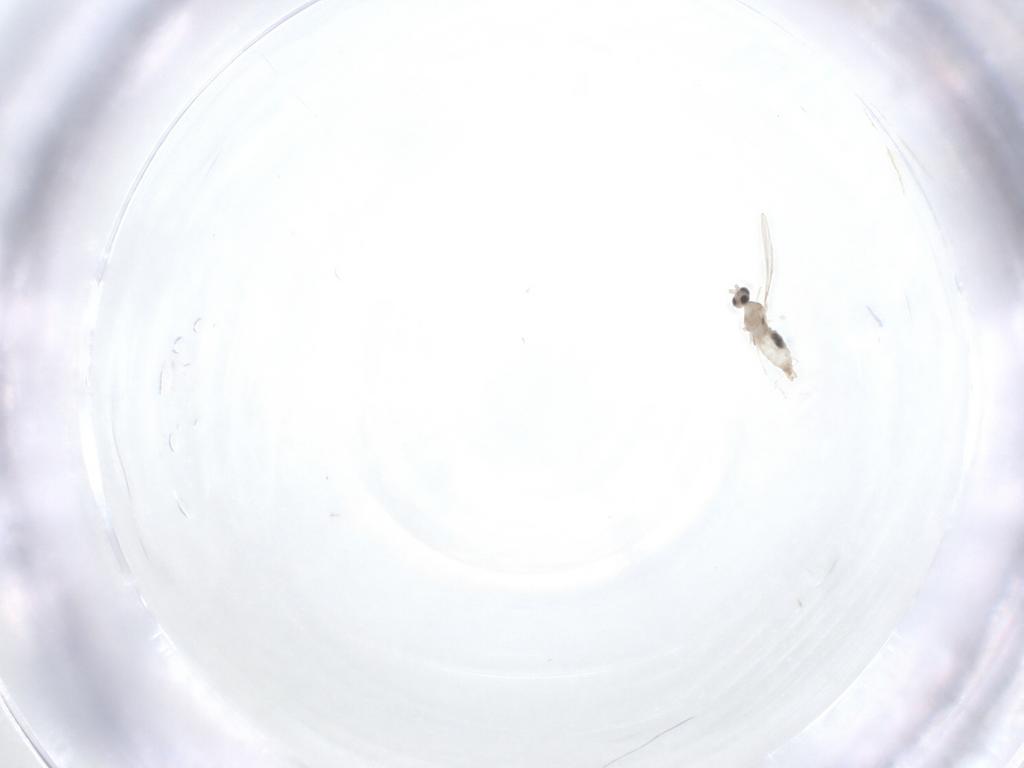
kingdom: Animalia
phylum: Arthropoda
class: Insecta
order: Diptera
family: Cecidomyiidae
